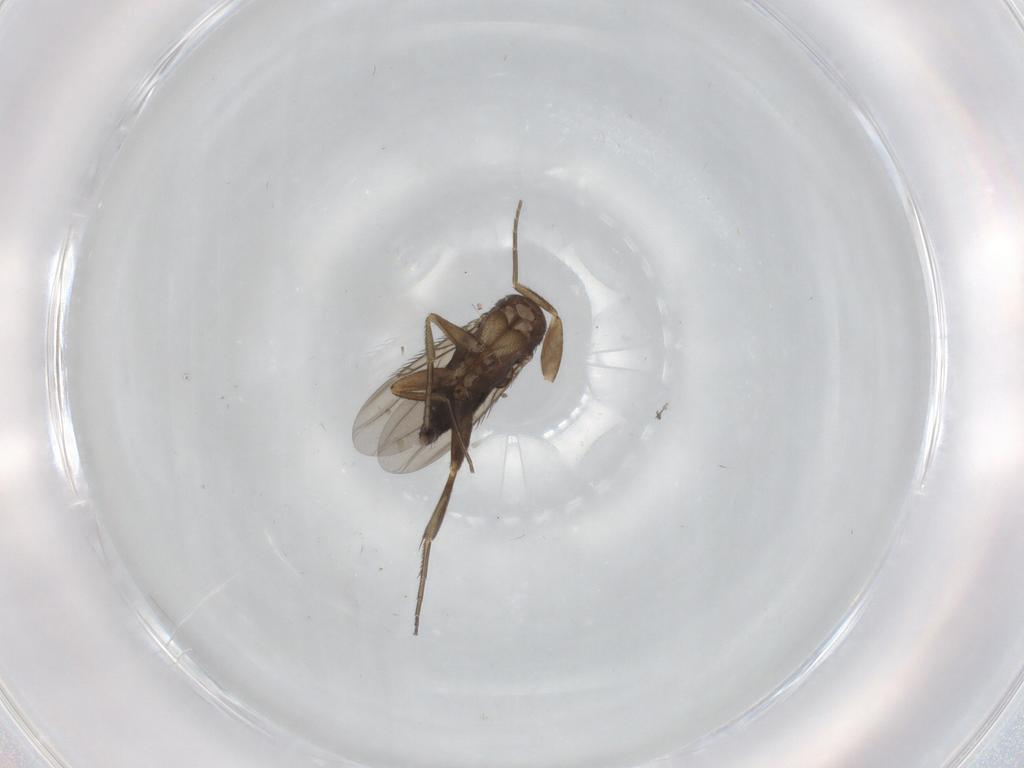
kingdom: Animalia
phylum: Arthropoda
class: Insecta
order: Diptera
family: Phoridae
